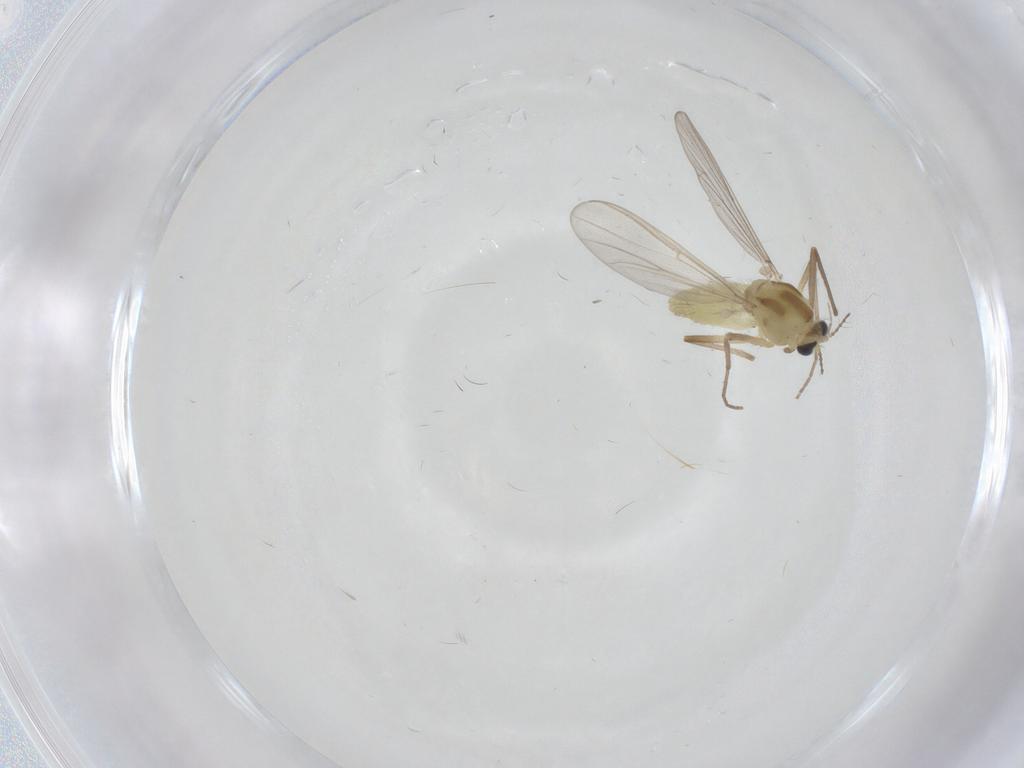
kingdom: Animalia
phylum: Arthropoda
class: Insecta
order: Diptera
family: Chironomidae
